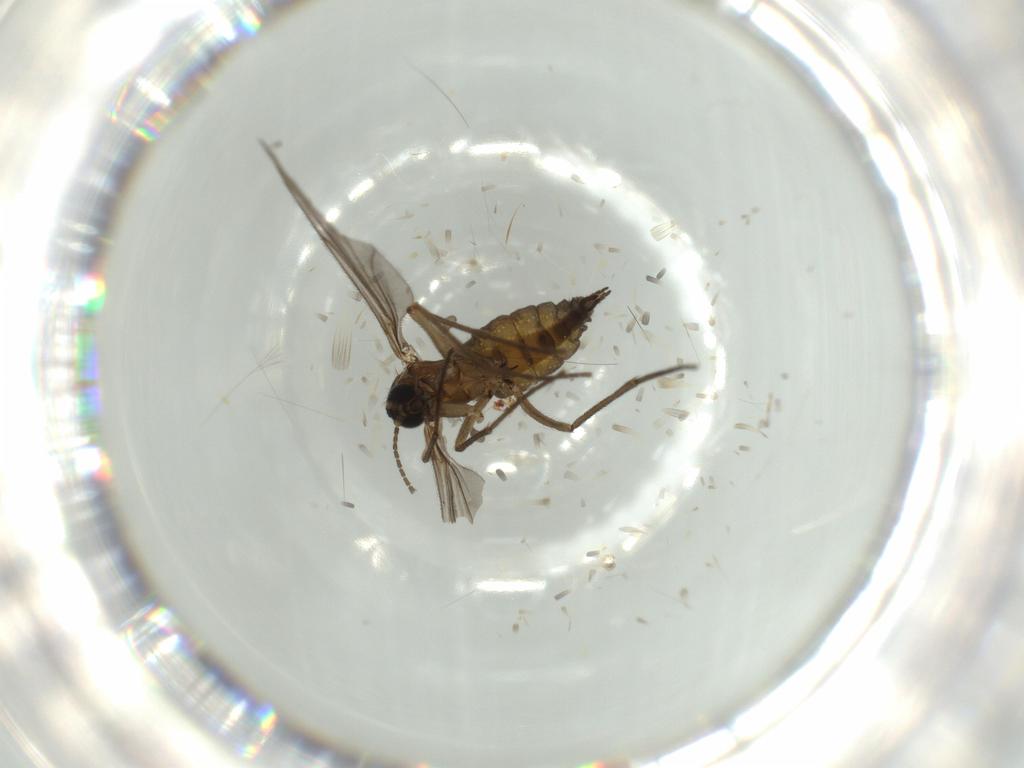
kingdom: Animalia
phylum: Arthropoda
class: Insecta
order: Diptera
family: Sciaridae
